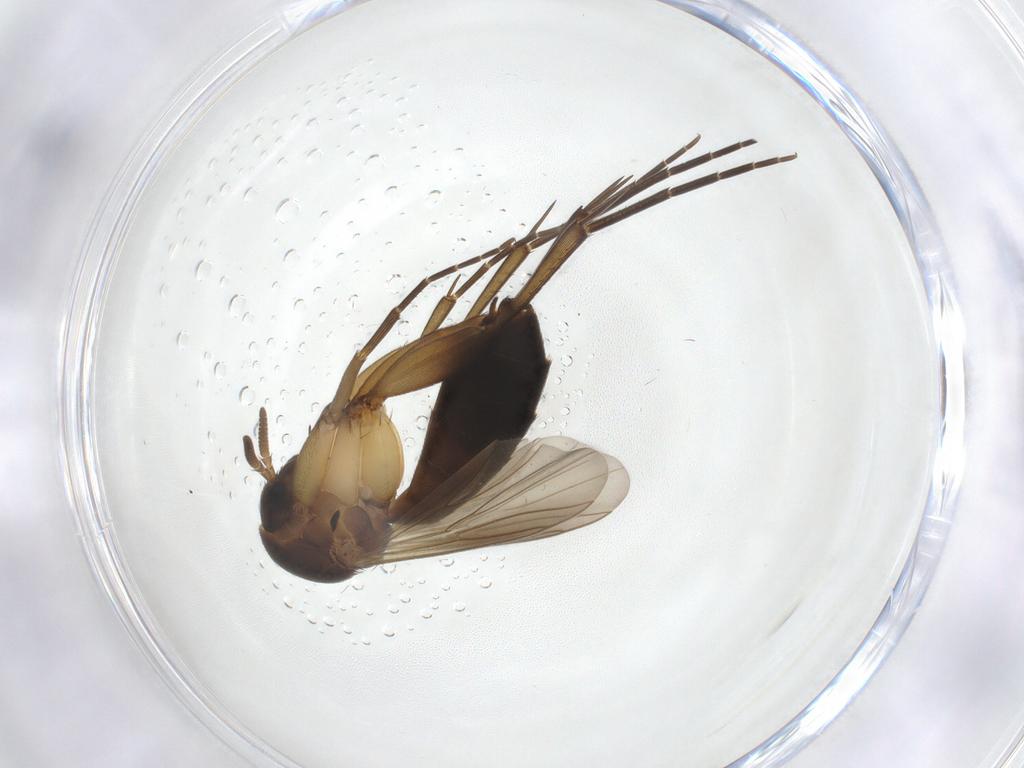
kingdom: Animalia
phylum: Arthropoda
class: Insecta
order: Diptera
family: Mycetophilidae
